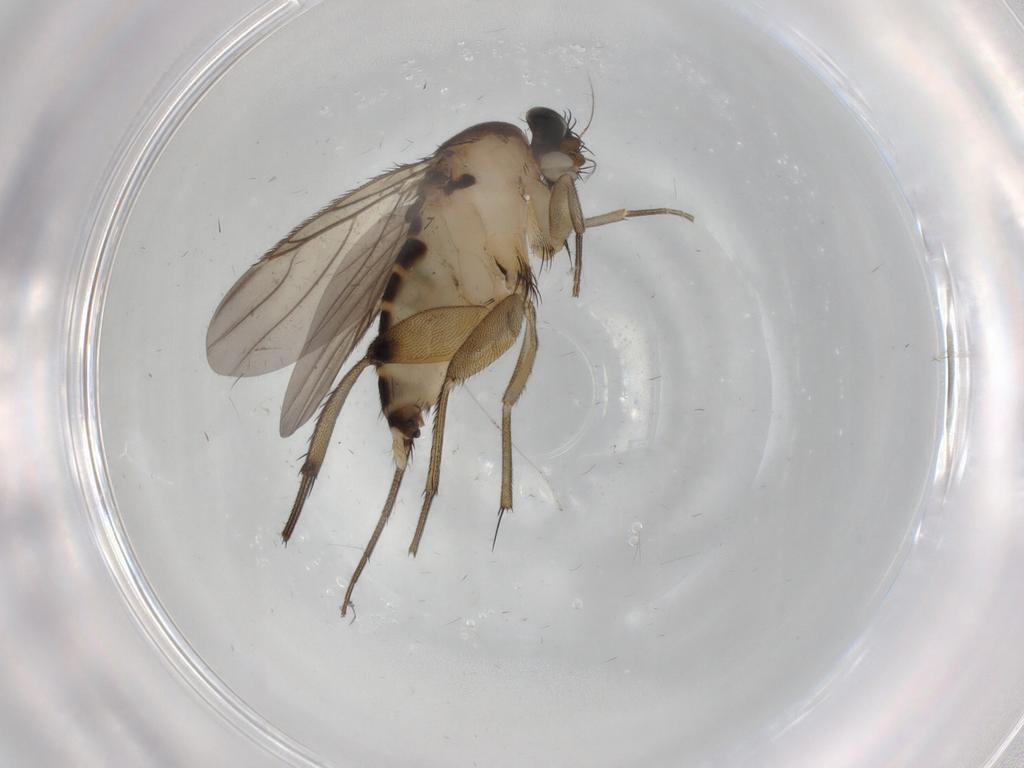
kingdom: Animalia
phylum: Arthropoda
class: Insecta
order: Diptera
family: Phoridae
